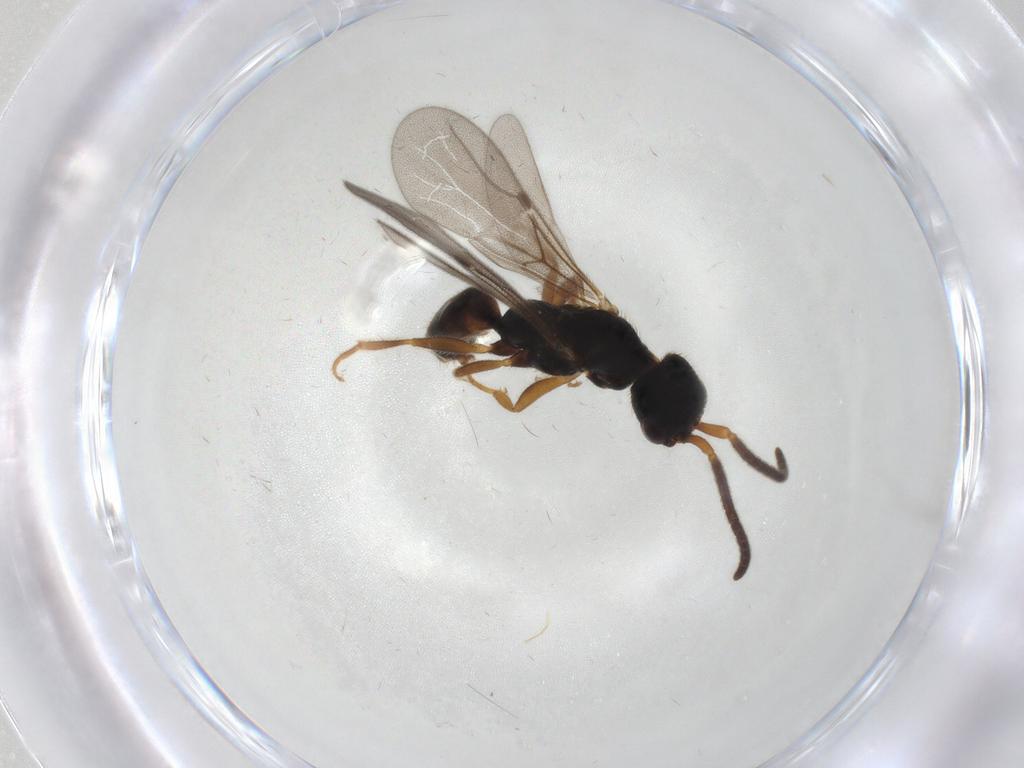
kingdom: Animalia
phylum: Arthropoda
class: Insecta
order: Hymenoptera
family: Bethylidae
